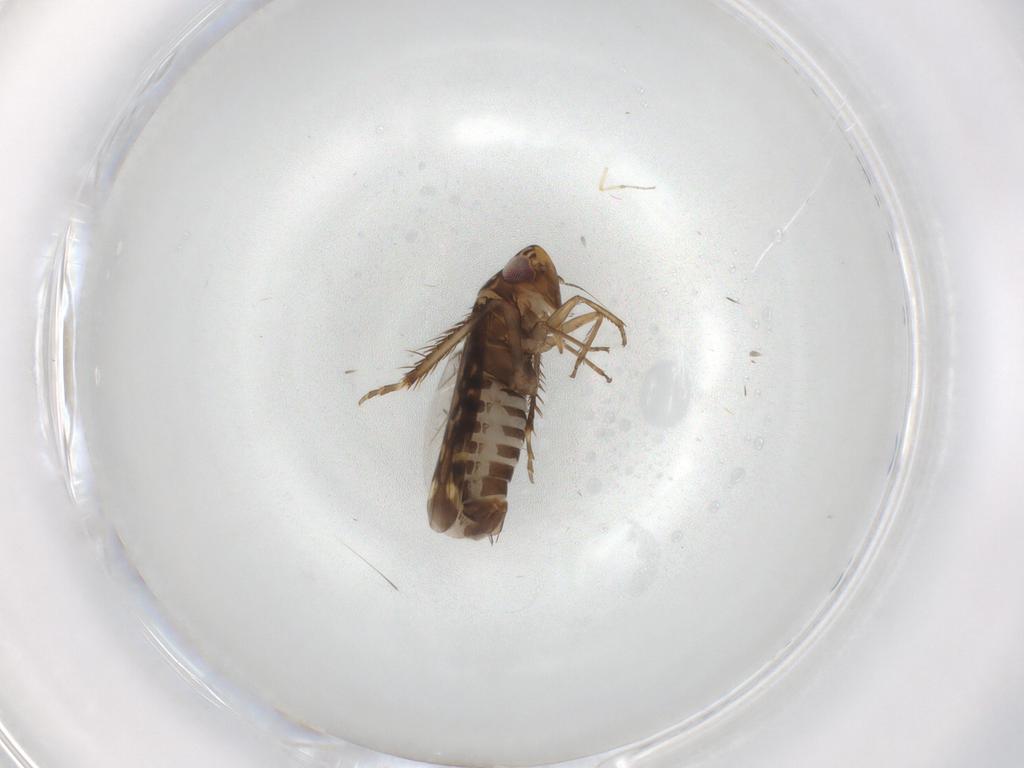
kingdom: Animalia
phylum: Arthropoda
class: Insecta
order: Hemiptera
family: Cicadellidae
